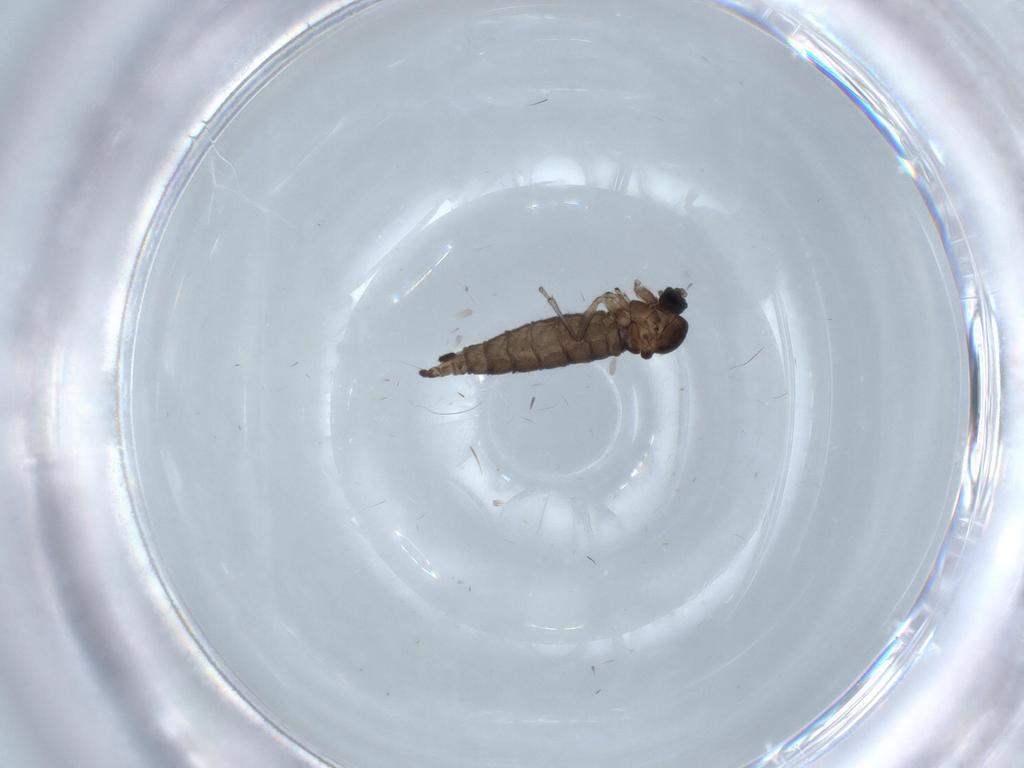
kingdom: Animalia
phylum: Arthropoda
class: Insecta
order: Diptera
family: Sciaridae
